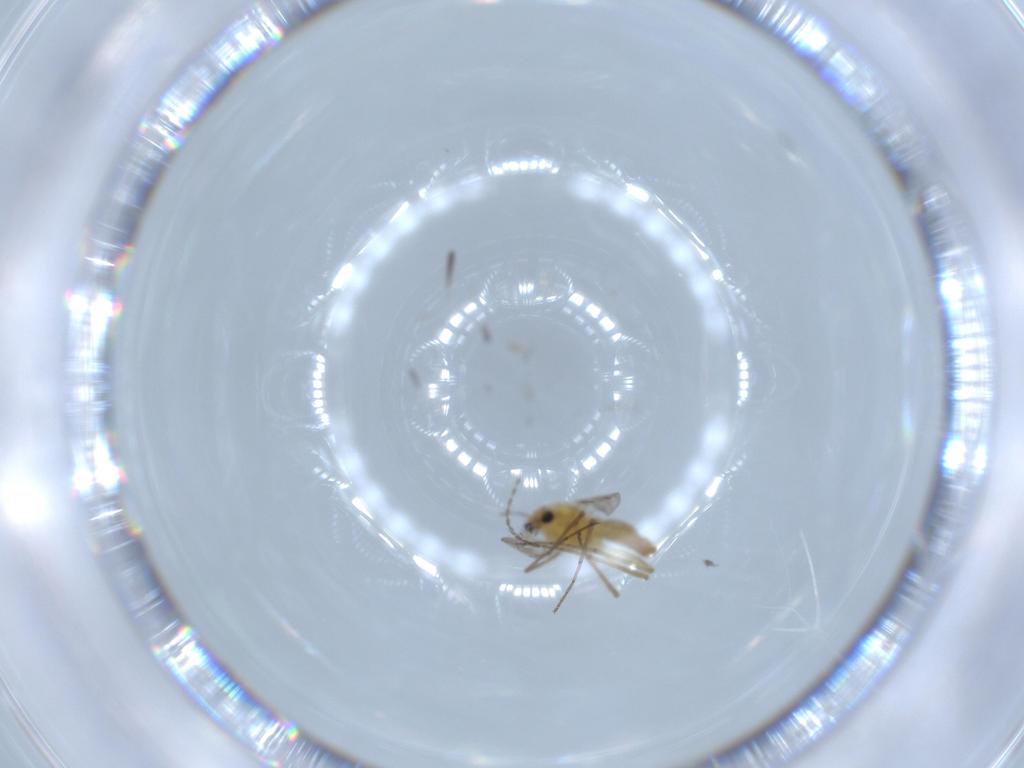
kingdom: Animalia
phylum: Arthropoda
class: Insecta
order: Diptera
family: Chironomidae
